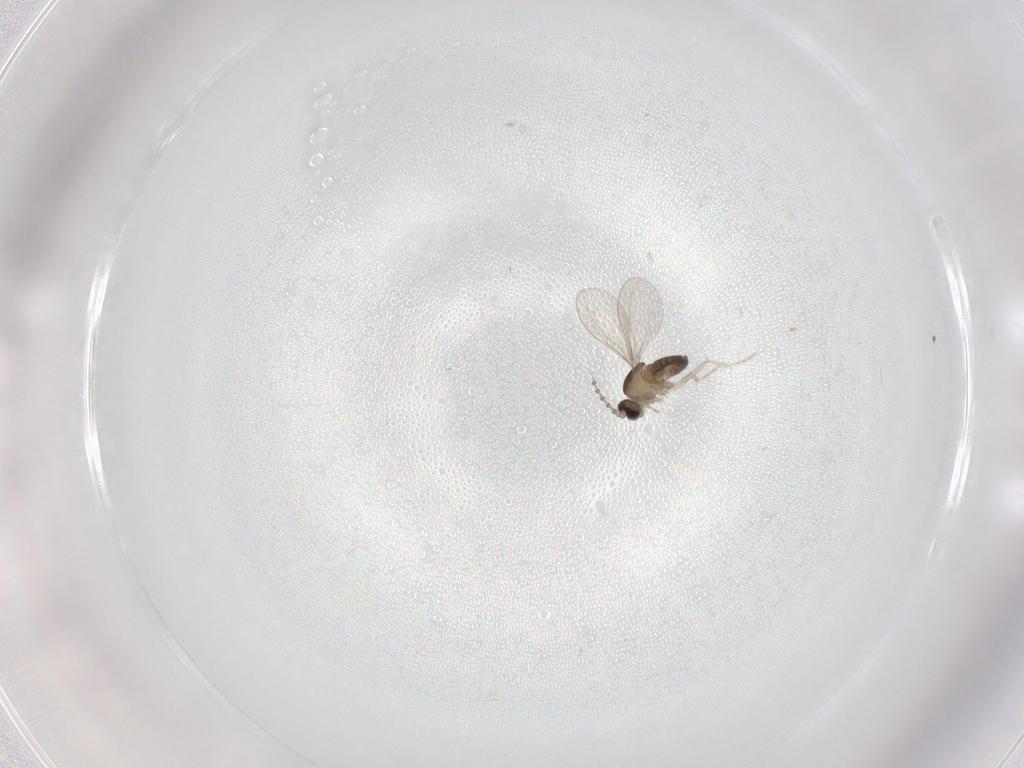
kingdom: Animalia
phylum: Arthropoda
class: Insecta
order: Diptera
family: Cecidomyiidae
